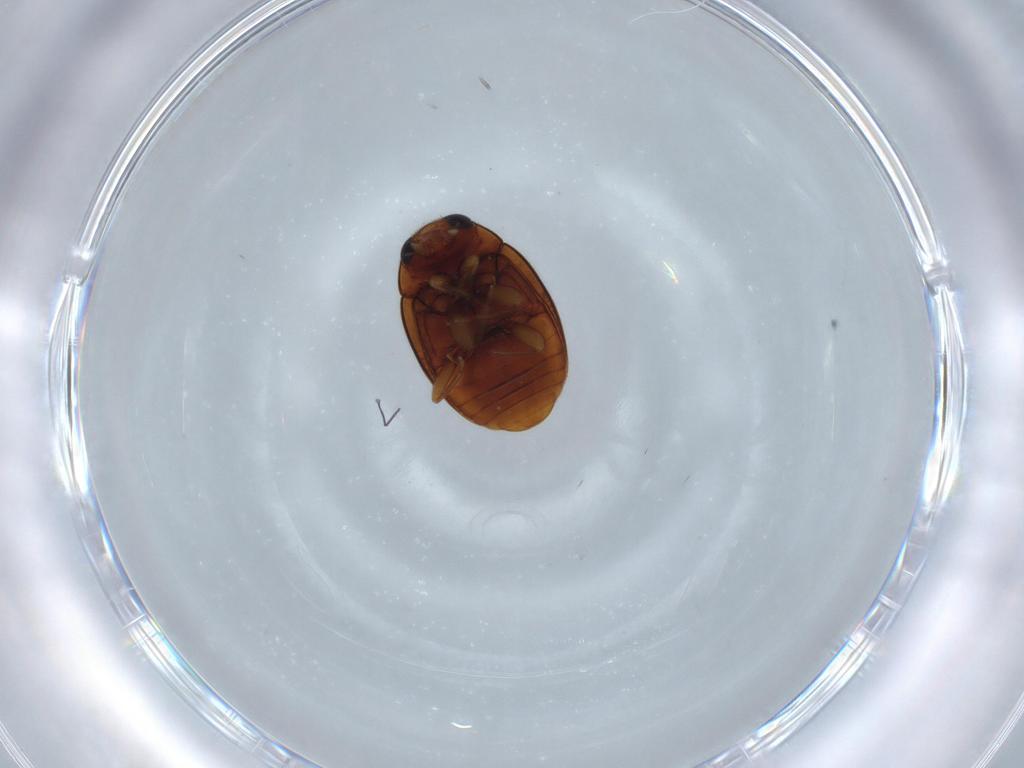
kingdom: Animalia
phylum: Arthropoda
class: Insecta
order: Coleoptera
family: Coccinellidae
